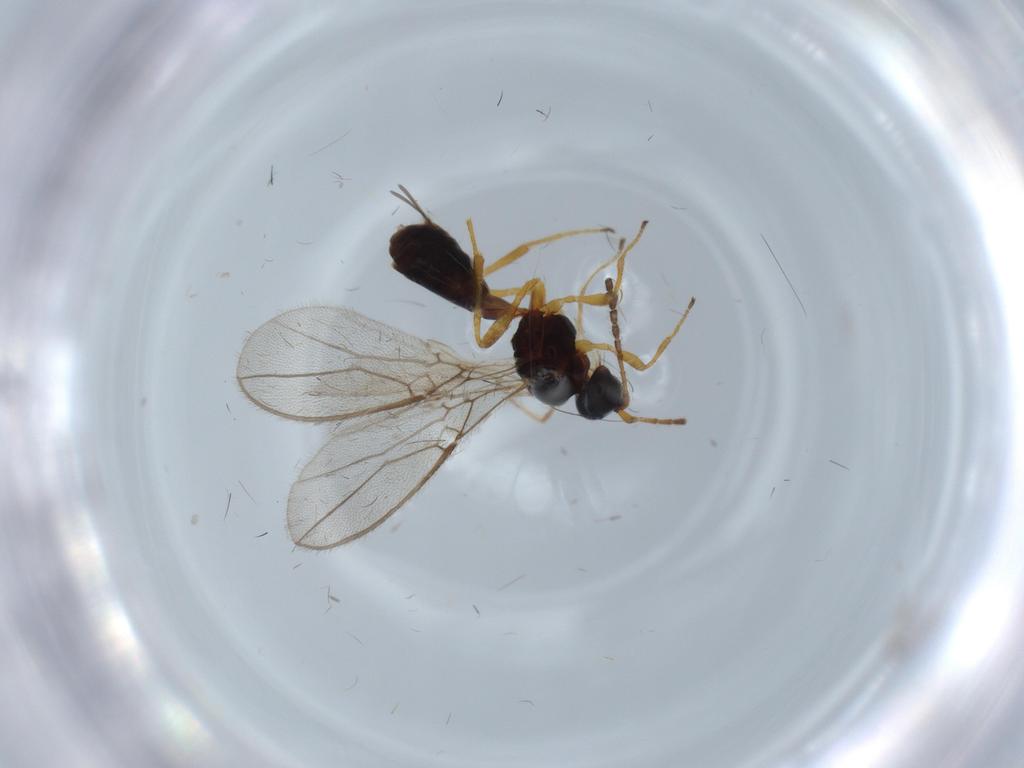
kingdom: Animalia
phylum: Arthropoda
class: Insecta
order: Hymenoptera
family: Braconidae
